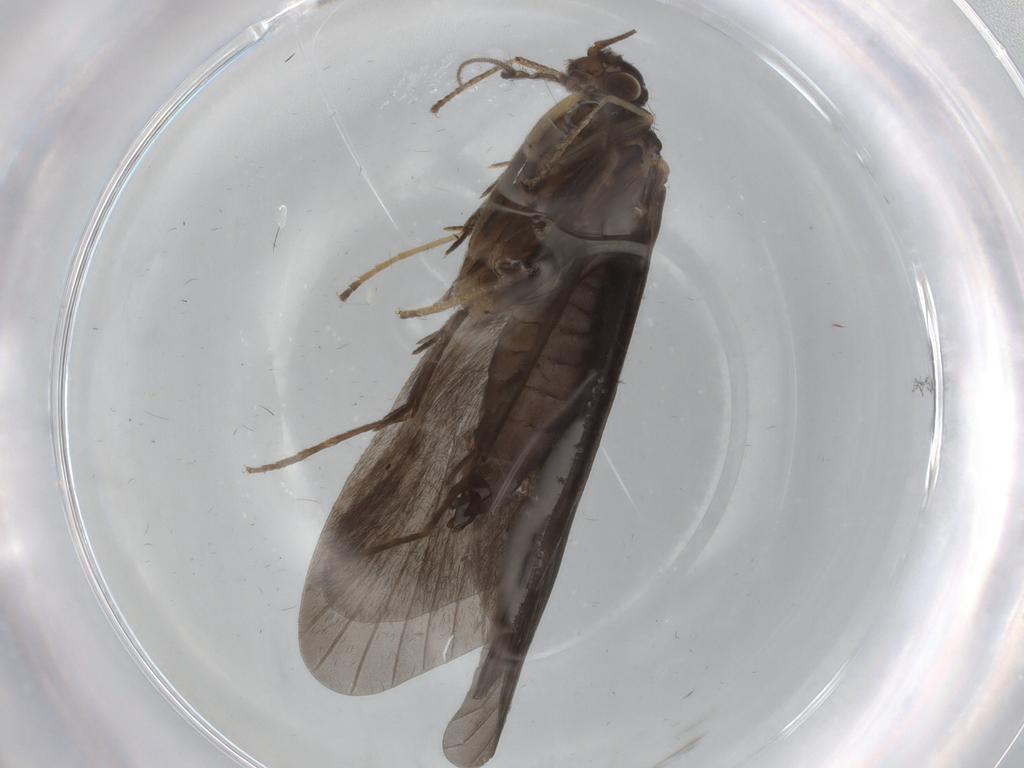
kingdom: Animalia
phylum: Arthropoda
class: Insecta
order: Trichoptera
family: Hydropsychidae
